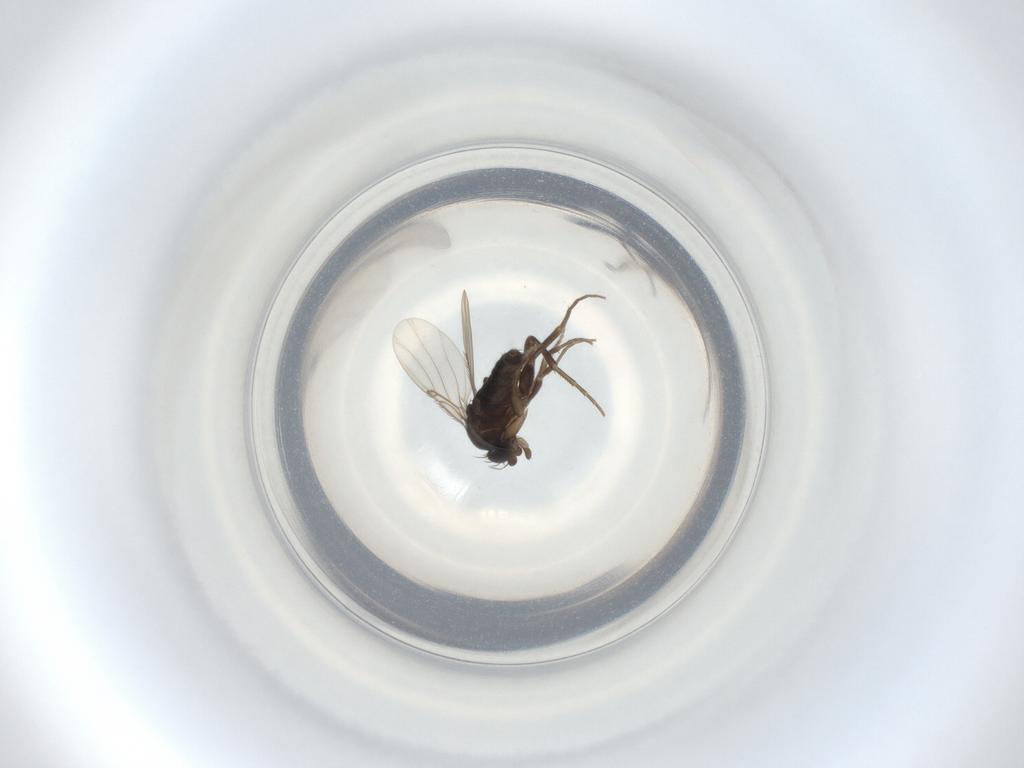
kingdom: Animalia
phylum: Arthropoda
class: Insecta
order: Diptera
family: Phoridae
